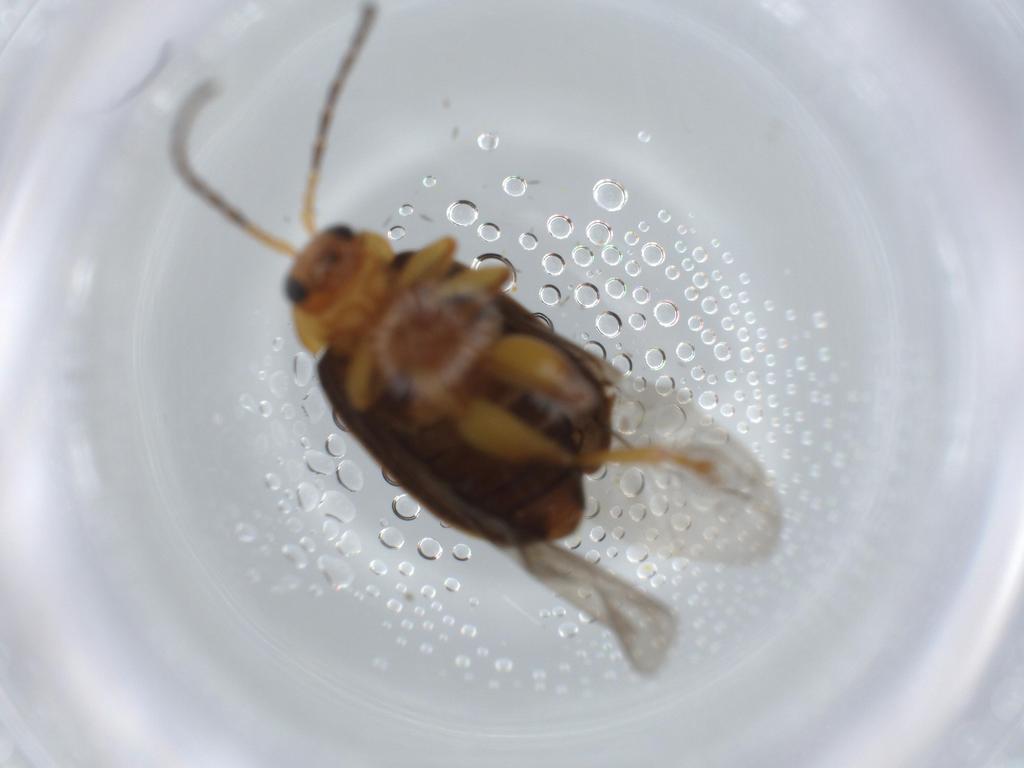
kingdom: Animalia
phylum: Arthropoda
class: Insecta
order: Coleoptera
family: Chrysomelidae
